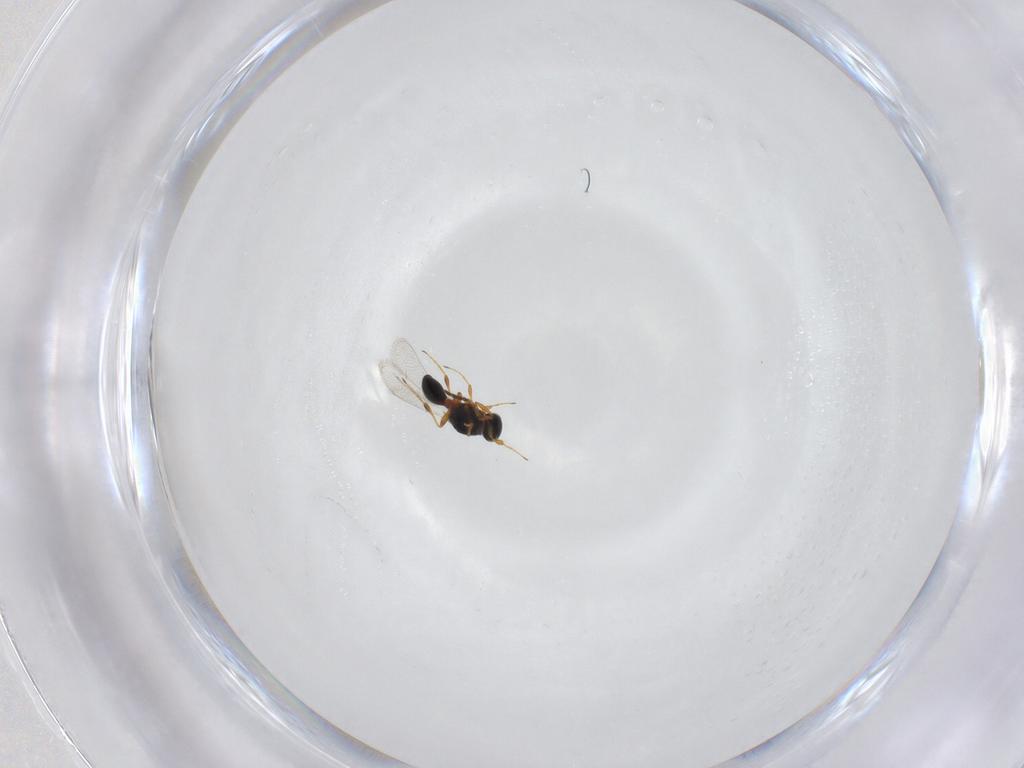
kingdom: Animalia
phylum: Arthropoda
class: Insecta
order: Hymenoptera
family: Platygastridae
